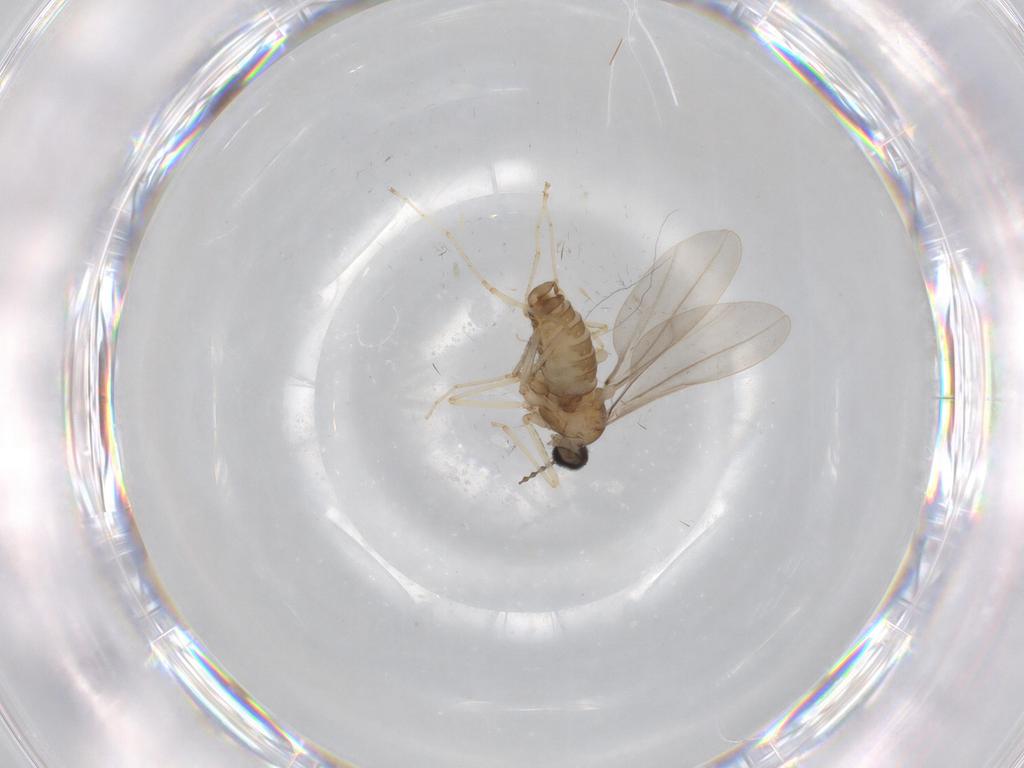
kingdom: Animalia
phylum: Arthropoda
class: Insecta
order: Diptera
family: Cecidomyiidae
